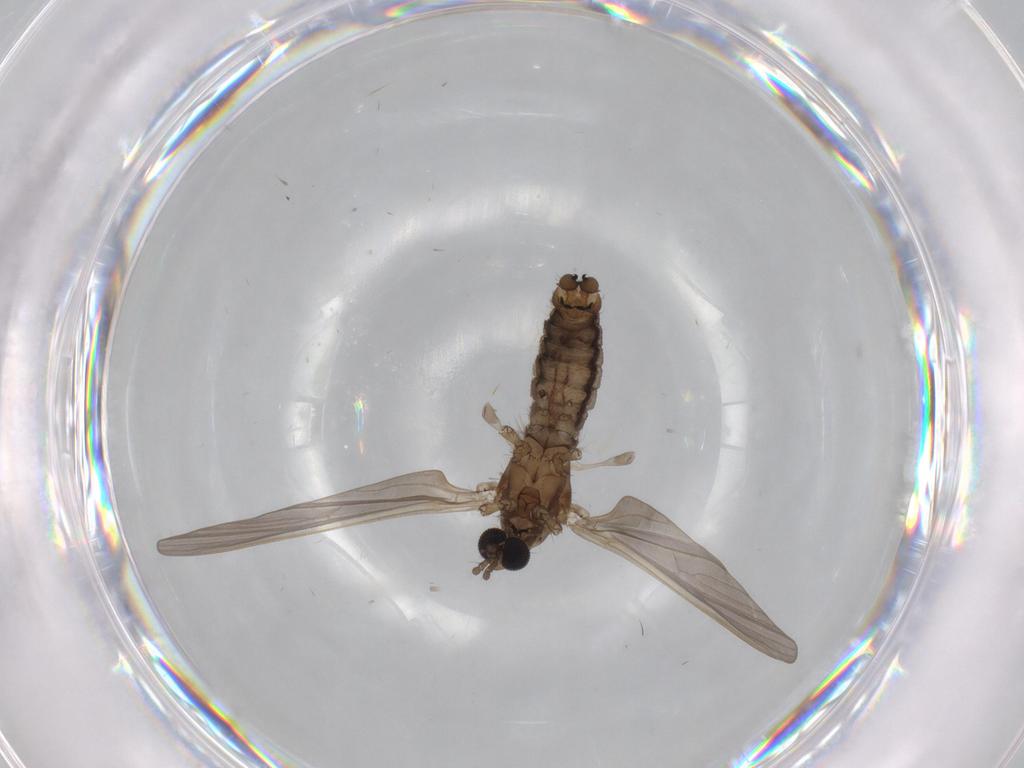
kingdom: Animalia
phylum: Arthropoda
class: Insecta
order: Diptera
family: Limoniidae
